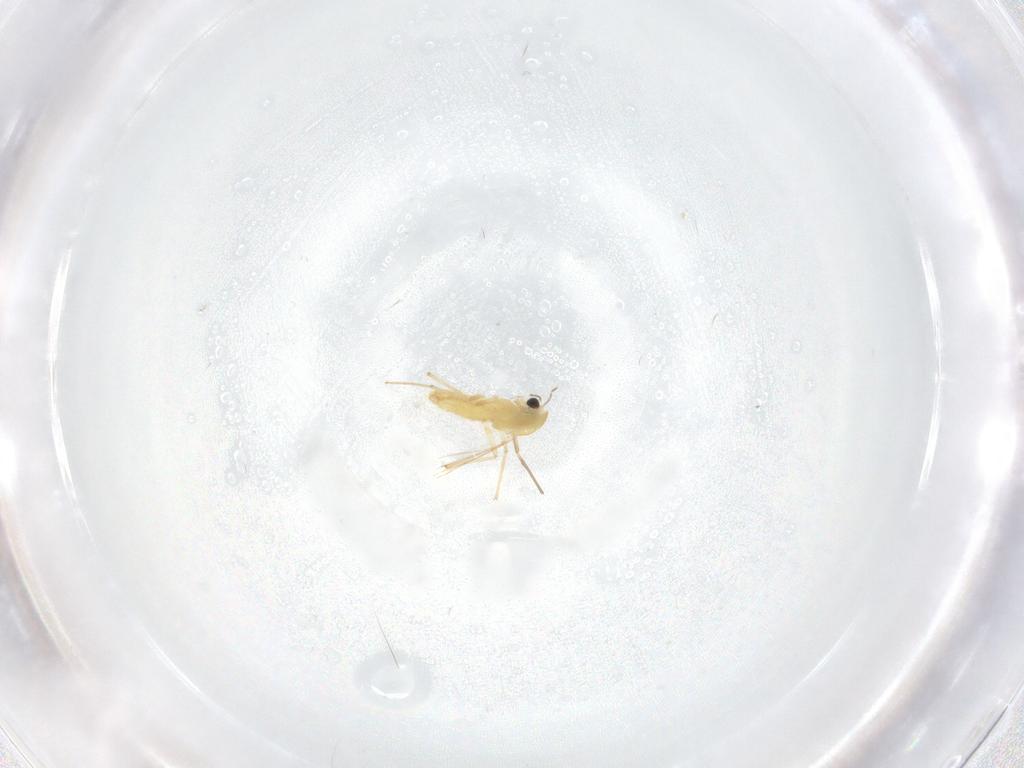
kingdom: Animalia
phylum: Arthropoda
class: Insecta
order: Diptera
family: Chironomidae
